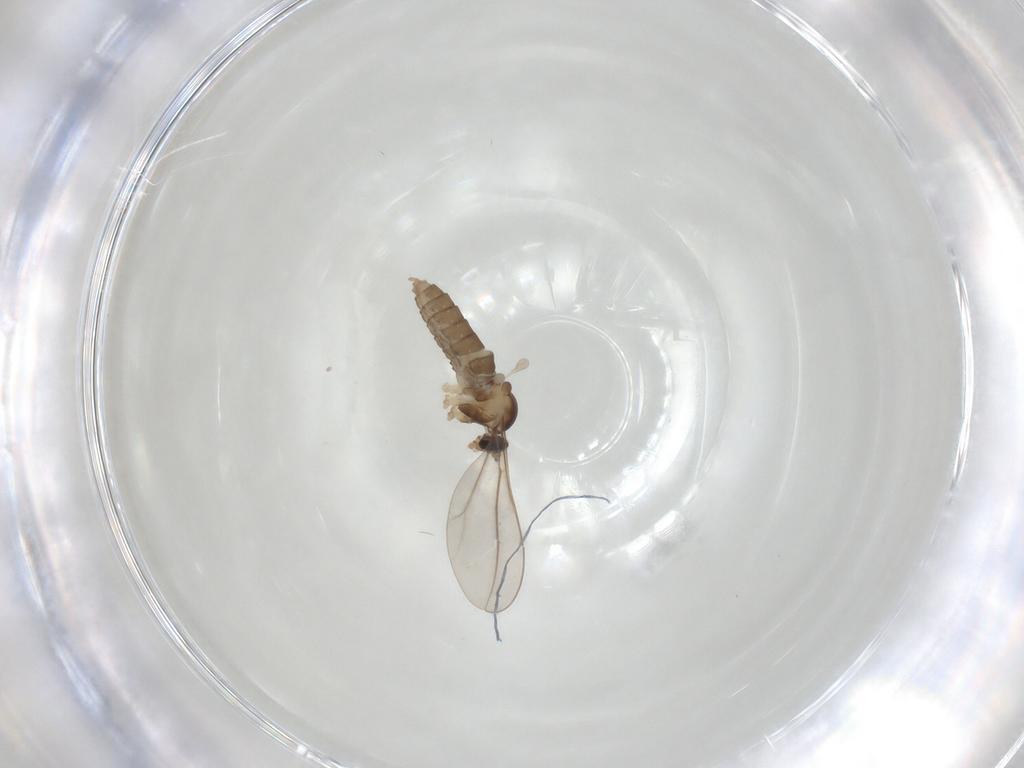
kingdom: Animalia
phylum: Arthropoda
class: Insecta
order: Diptera
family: Cecidomyiidae
